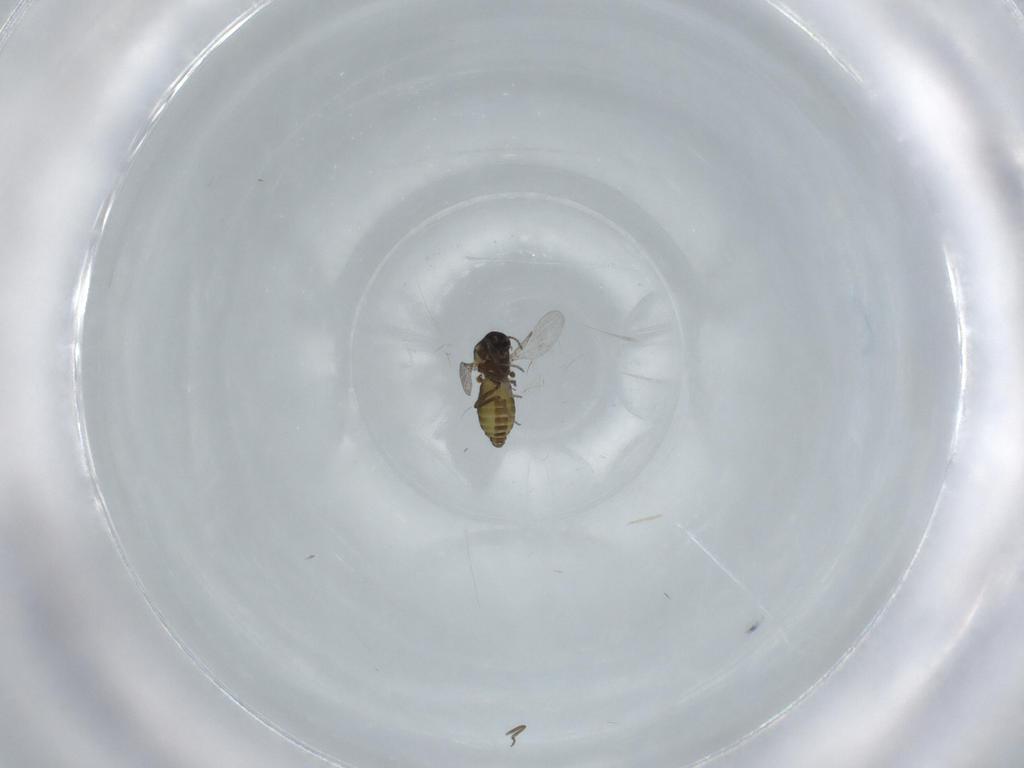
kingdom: Animalia
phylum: Arthropoda
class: Insecta
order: Diptera
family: Ceratopogonidae
